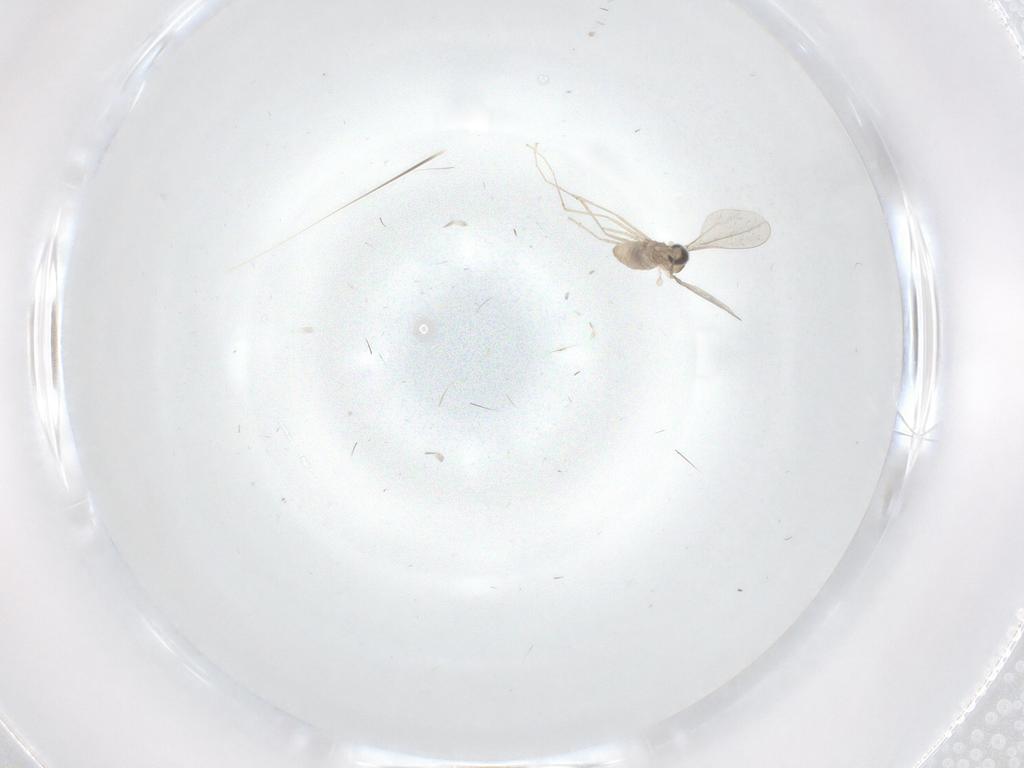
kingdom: Animalia
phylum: Arthropoda
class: Insecta
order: Diptera
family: Cecidomyiidae
